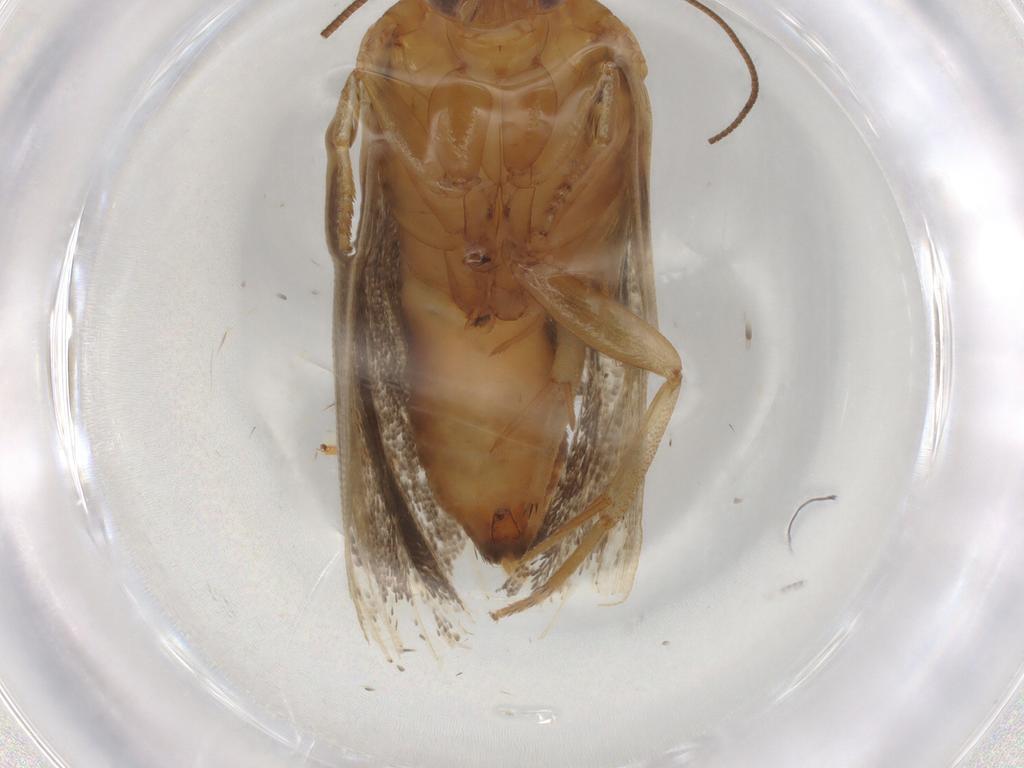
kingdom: Animalia
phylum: Arthropoda
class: Insecta
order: Lepidoptera
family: Tortricidae
